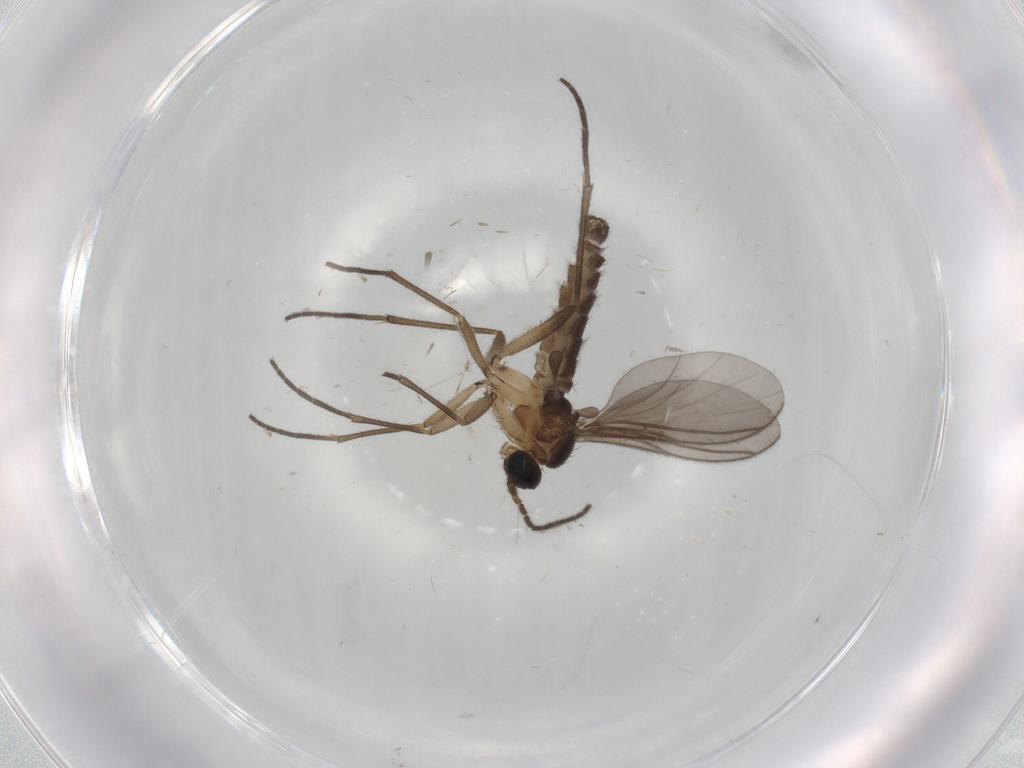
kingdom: Animalia
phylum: Arthropoda
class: Insecta
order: Diptera
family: Sciaridae
